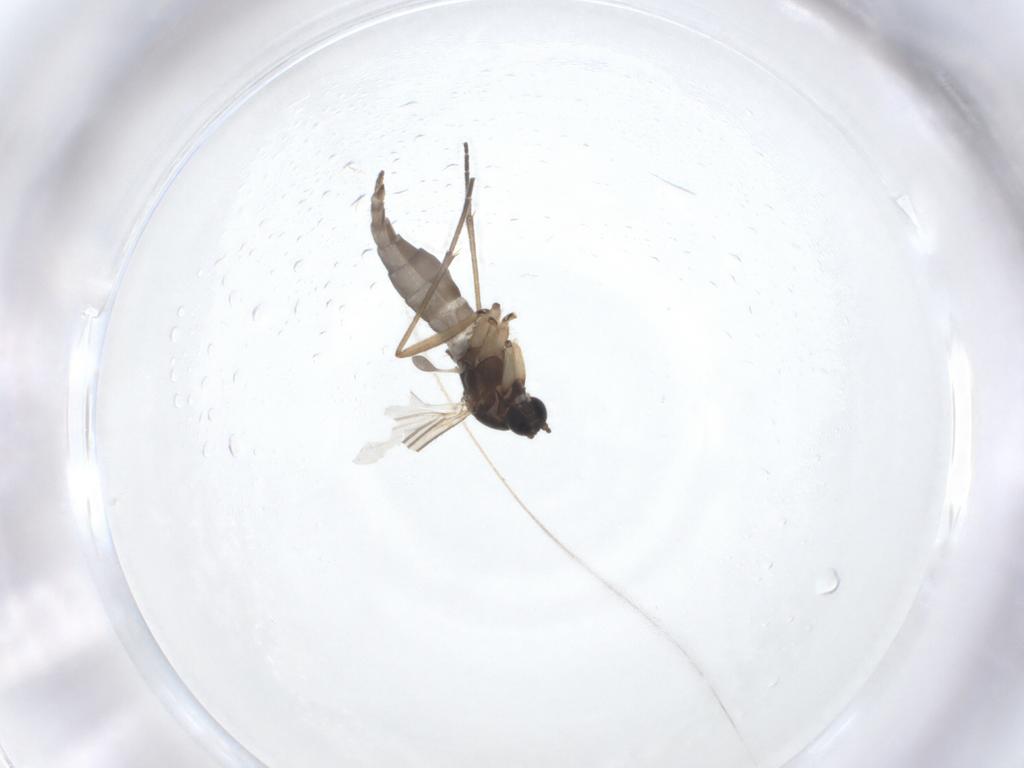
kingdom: Animalia
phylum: Arthropoda
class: Insecta
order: Diptera
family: Sciaridae
